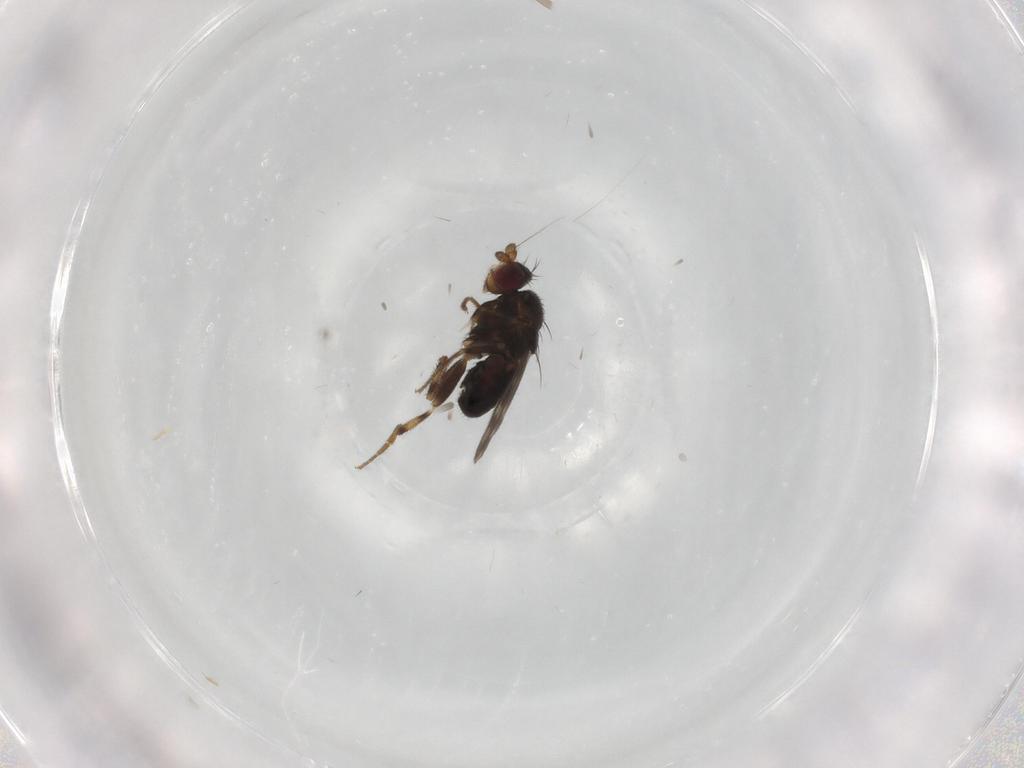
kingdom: Animalia
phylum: Arthropoda
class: Insecta
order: Diptera
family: Sphaeroceridae
